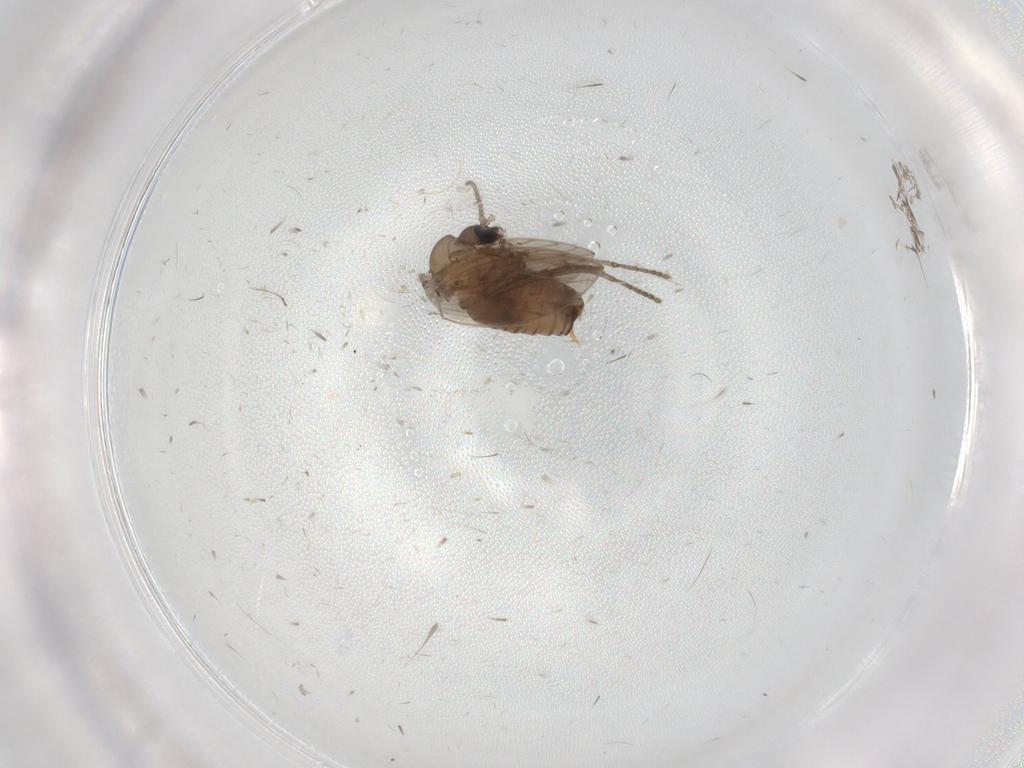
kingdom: Animalia
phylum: Arthropoda
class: Insecta
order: Diptera
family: Psychodidae
